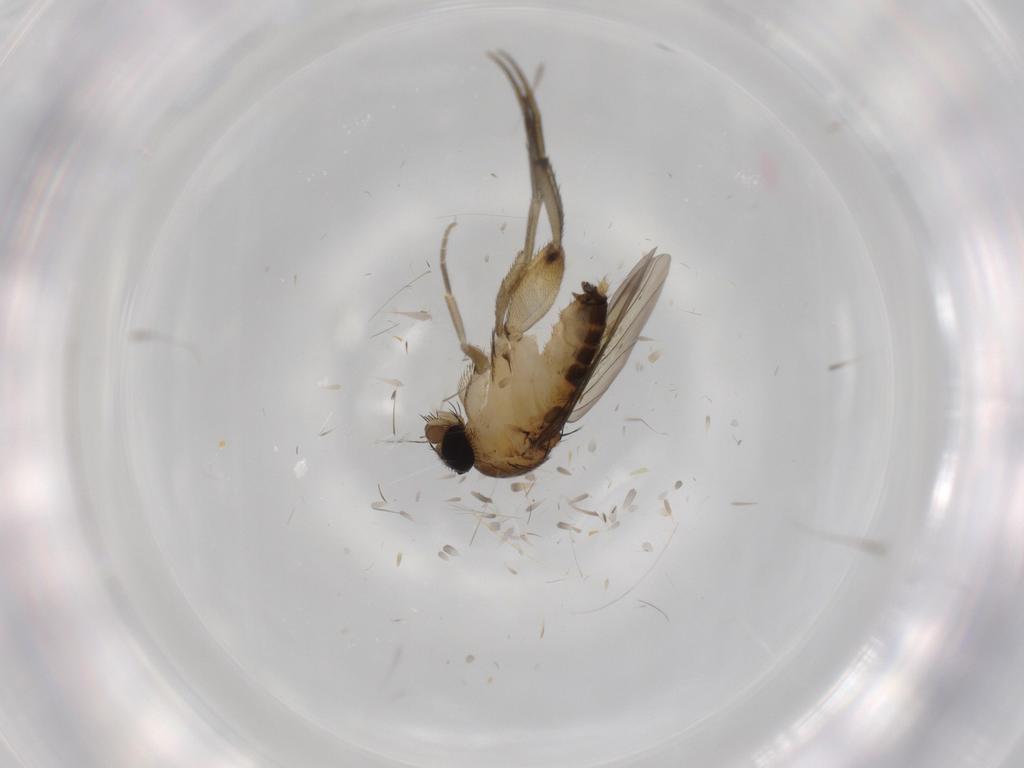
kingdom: Animalia
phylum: Arthropoda
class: Insecta
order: Diptera
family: Phoridae
